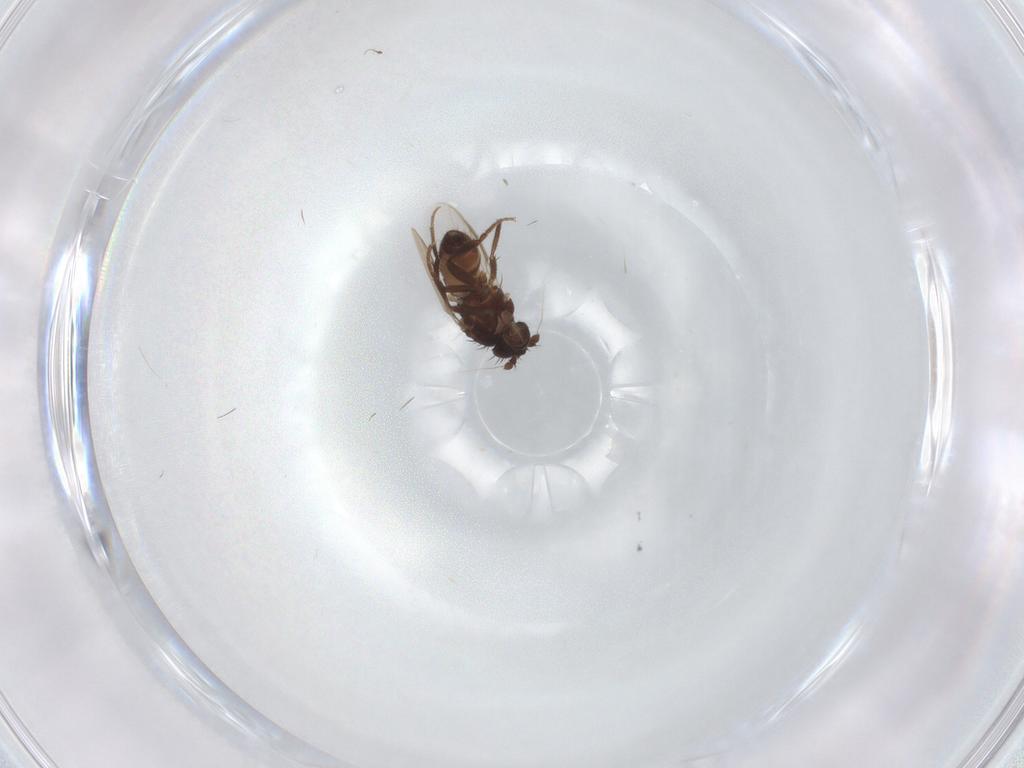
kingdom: Animalia
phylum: Arthropoda
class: Insecta
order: Diptera
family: Sphaeroceridae
